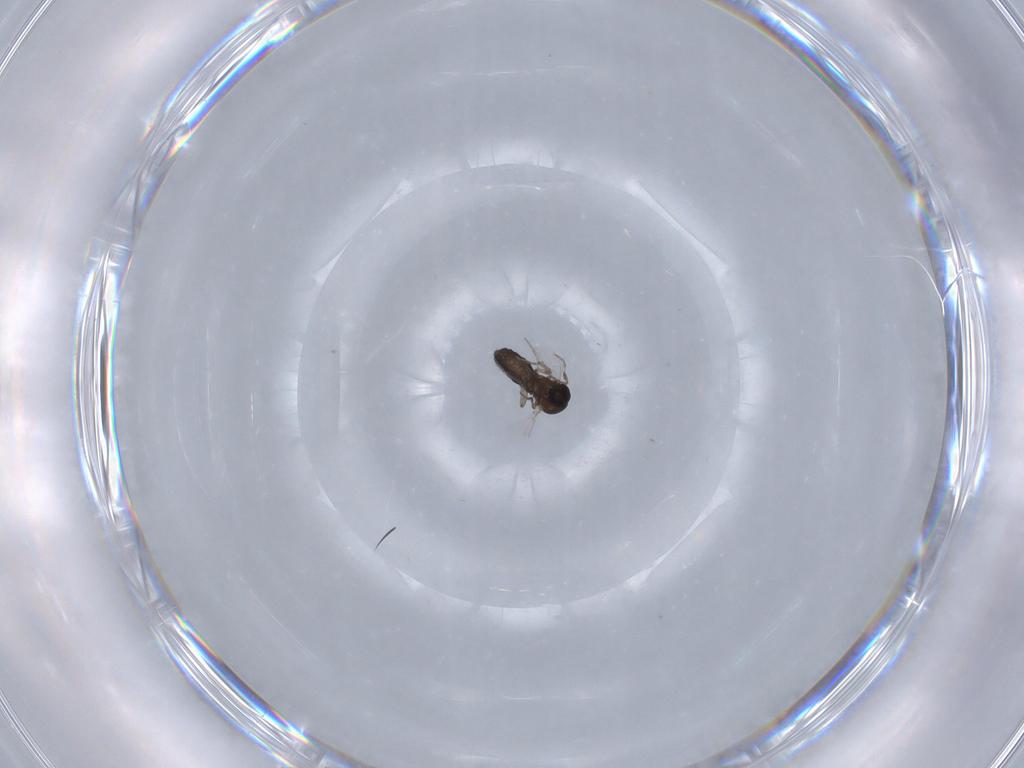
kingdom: Animalia
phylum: Arthropoda
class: Insecta
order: Diptera
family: Ceratopogonidae
